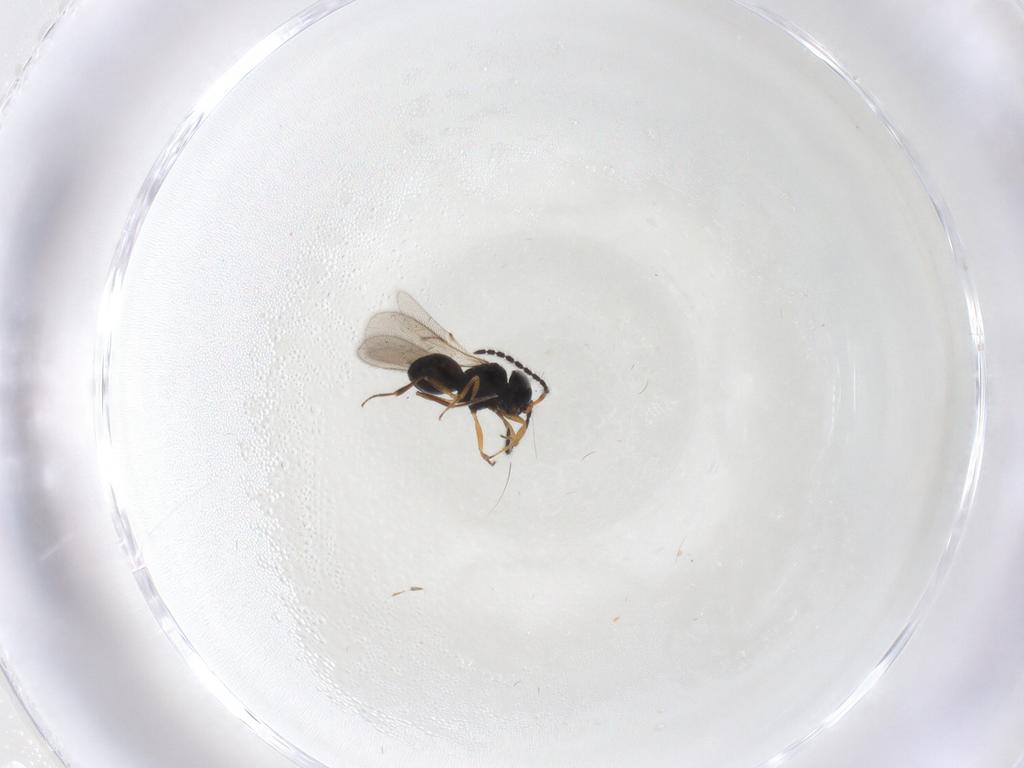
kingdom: Animalia
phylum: Arthropoda
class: Insecta
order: Hymenoptera
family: Scelionidae
